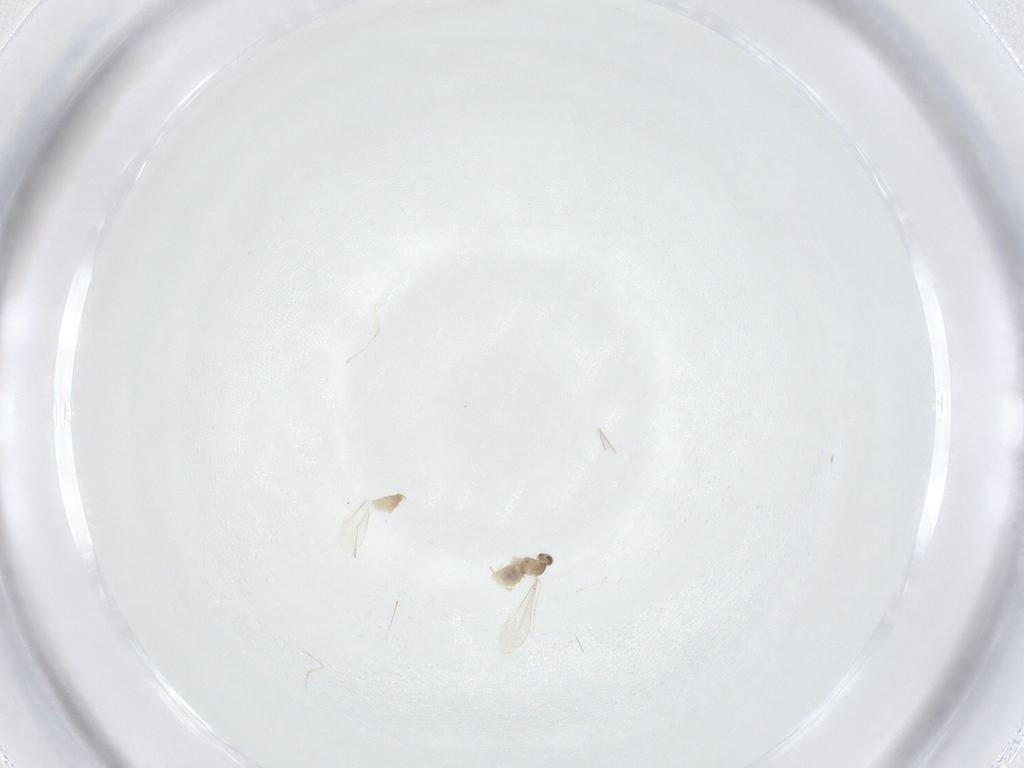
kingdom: Animalia
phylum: Arthropoda
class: Insecta
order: Diptera
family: Cecidomyiidae
